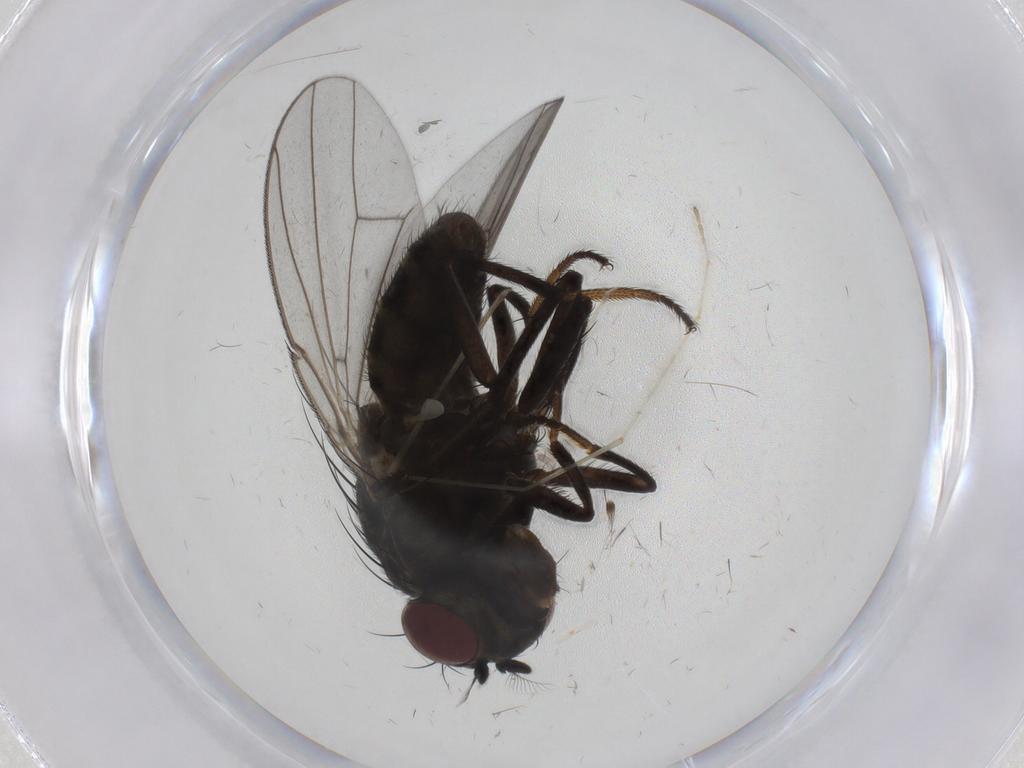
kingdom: Animalia
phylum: Arthropoda
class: Insecta
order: Diptera
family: Ephydridae
